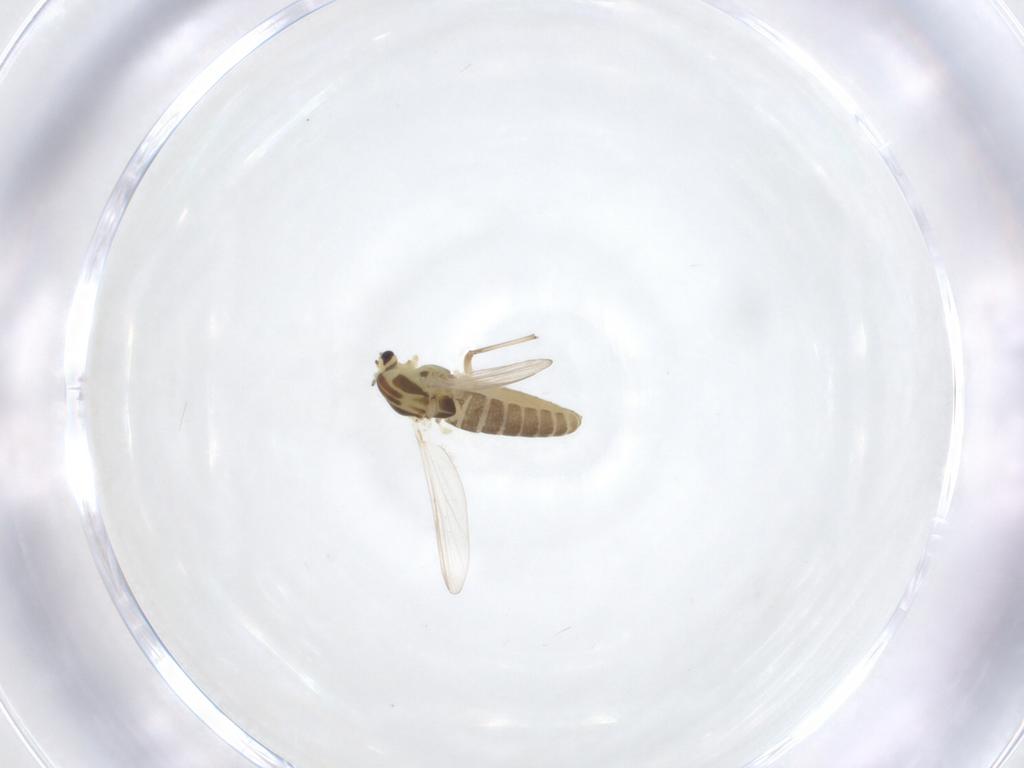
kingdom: Animalia
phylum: Arthropoda
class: Insecta
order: Diptera
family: Chironomidae
